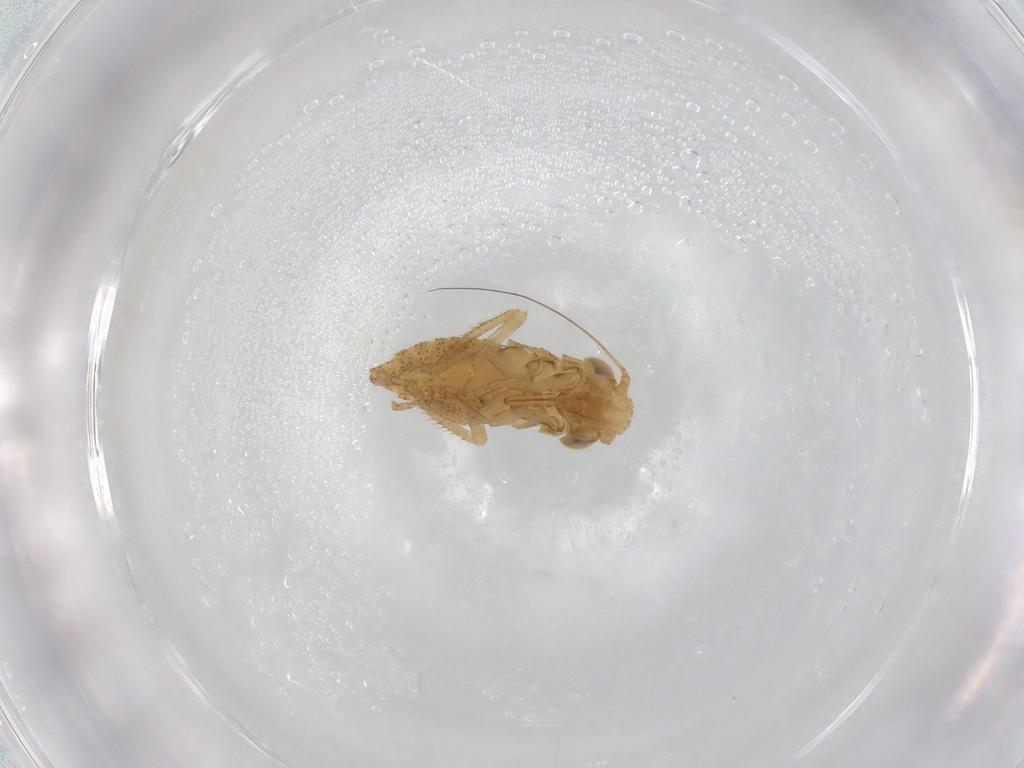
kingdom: Animalia
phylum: Arthropoda
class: Insecta
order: Hemiptera
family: Cicadellidae
